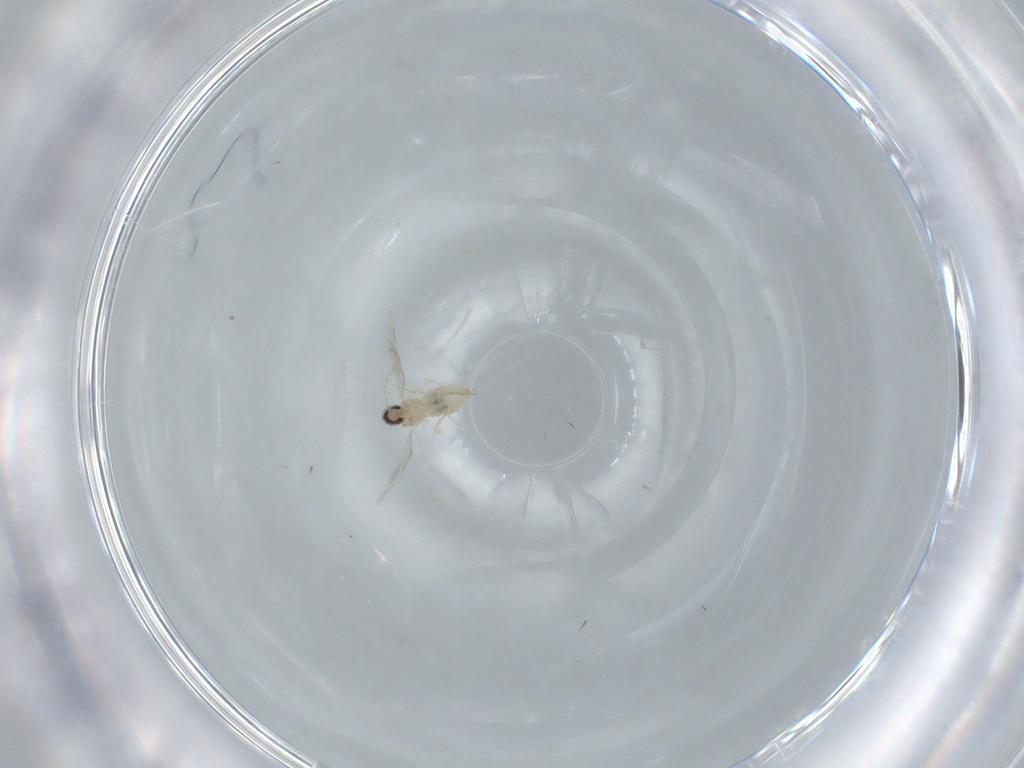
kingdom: Animalia
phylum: Arthropoda
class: Insecta
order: Diptera
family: Cecidomyiidae
